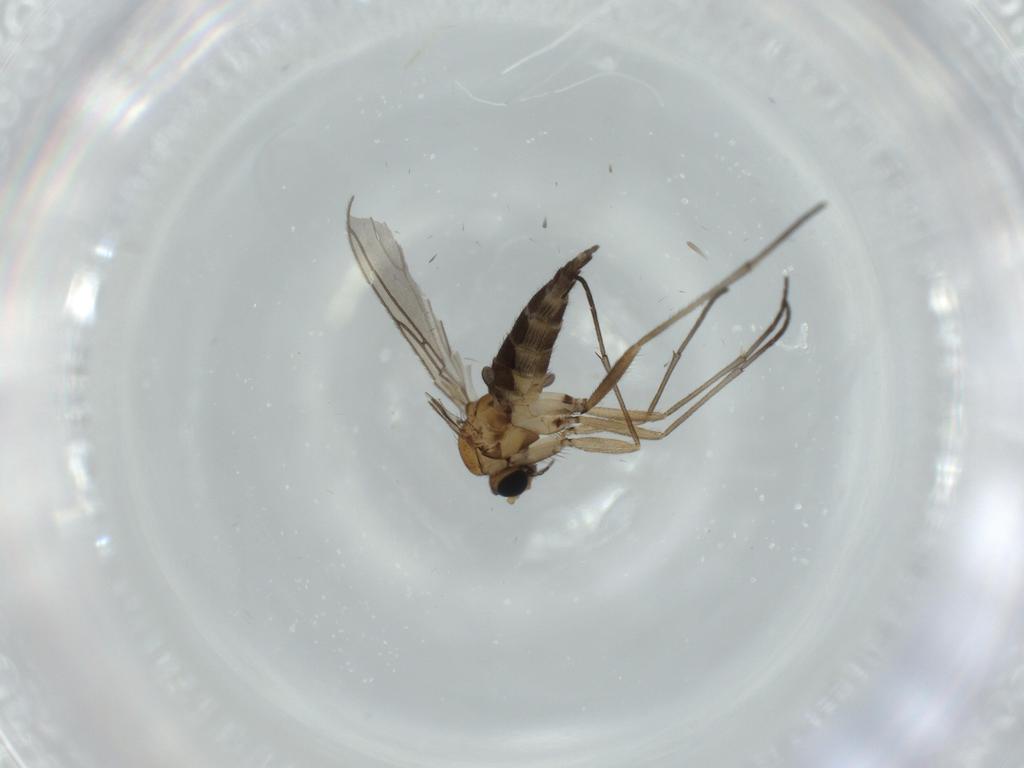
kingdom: Animalia
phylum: Arthropoda
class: Insecta
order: Diptera
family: Sciaridae
